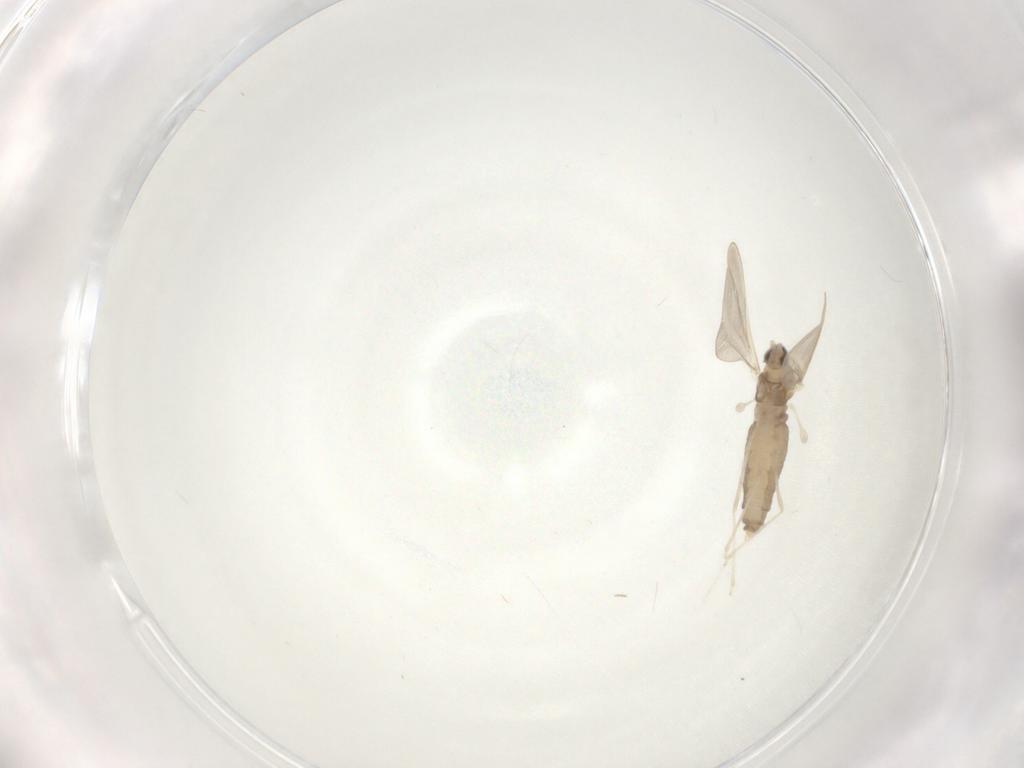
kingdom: Animalia
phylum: Arthropoda
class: Insecta
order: Diptera
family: Cecidomyiidae
